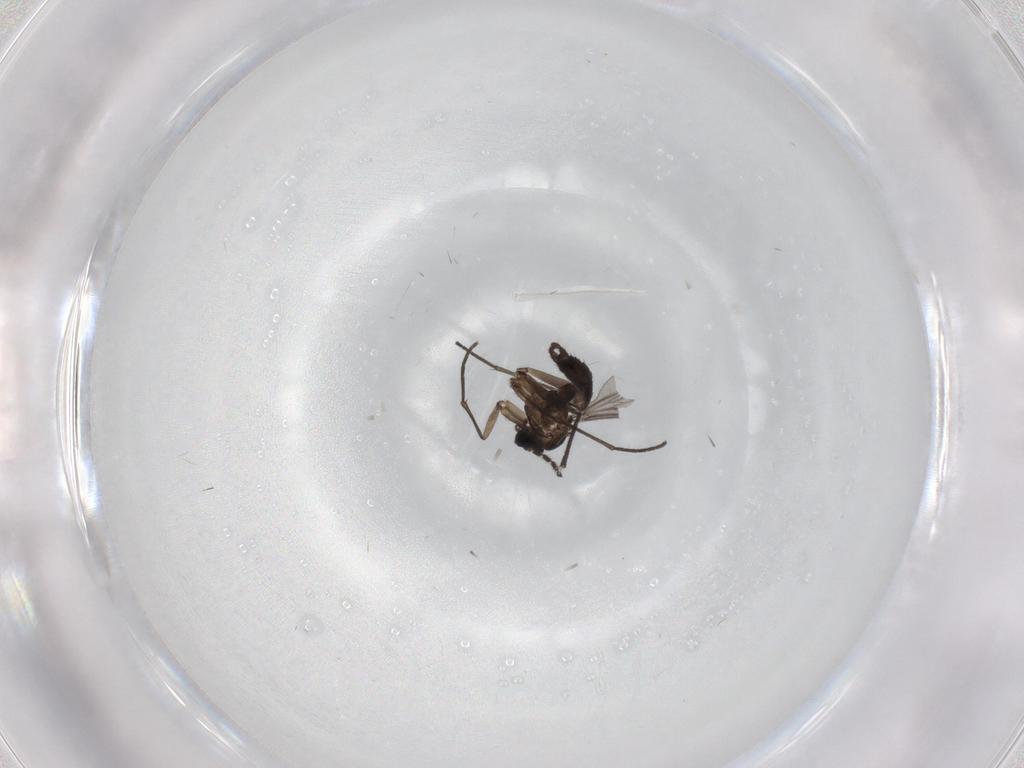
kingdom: Animalia
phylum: Arthropoda
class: Insecta
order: Diptera
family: Sciaridae
